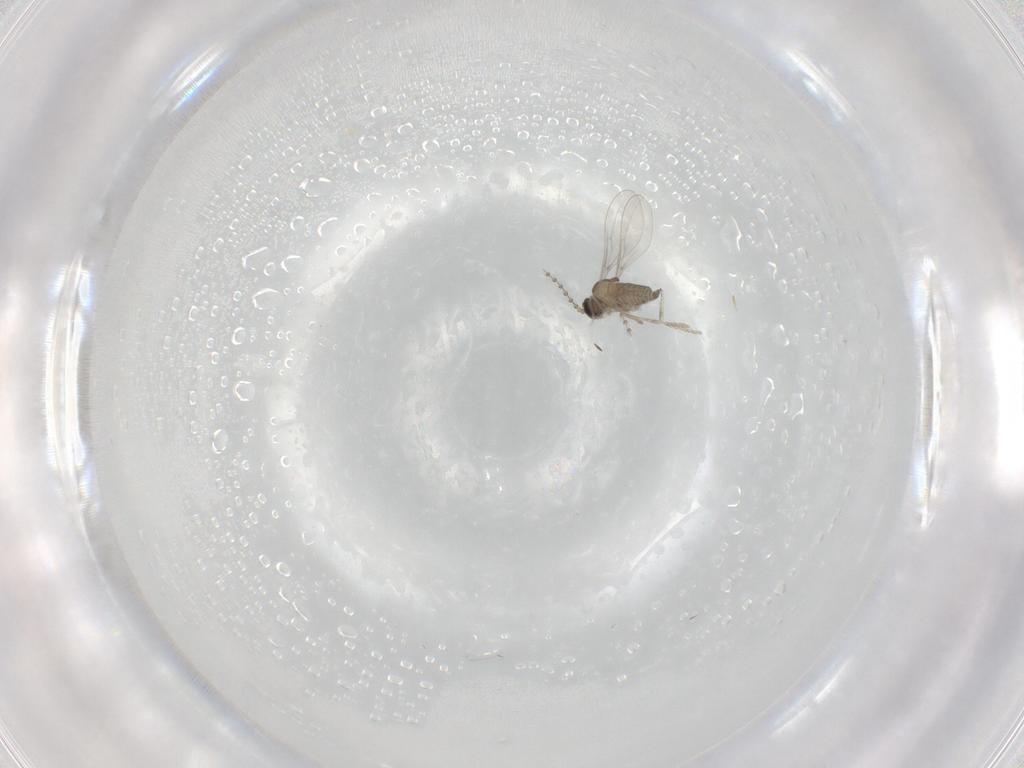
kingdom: Animalia
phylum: Arthropoda
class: Insecta
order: Diptera
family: Cecidomyiidae
